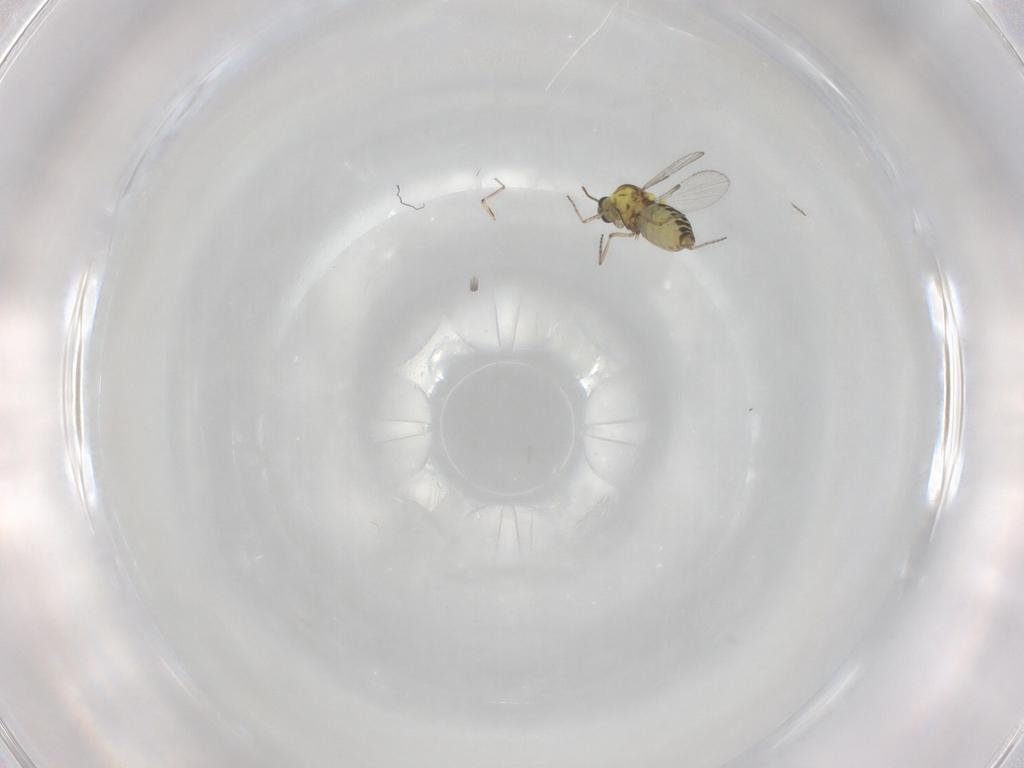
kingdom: Animalia
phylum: Arthropoda
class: Insecta
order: Diptera
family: Ceratopogonidae
